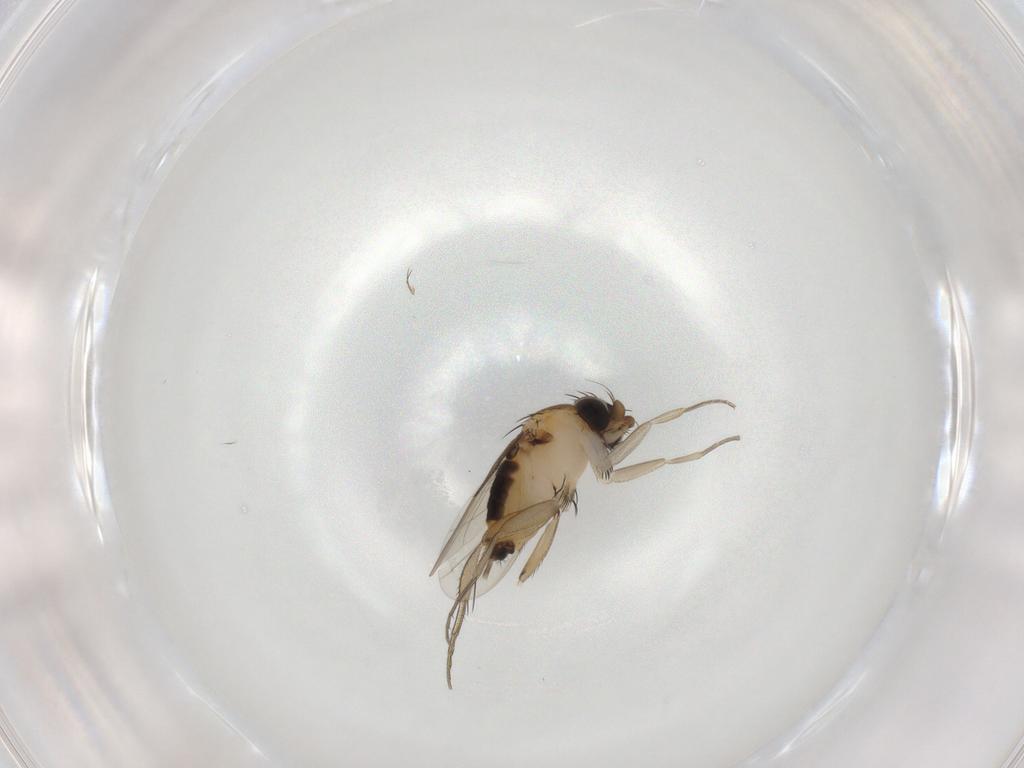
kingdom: Animalia
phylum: Arthropoda
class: Insecta
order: Diptera
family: Phoridae
